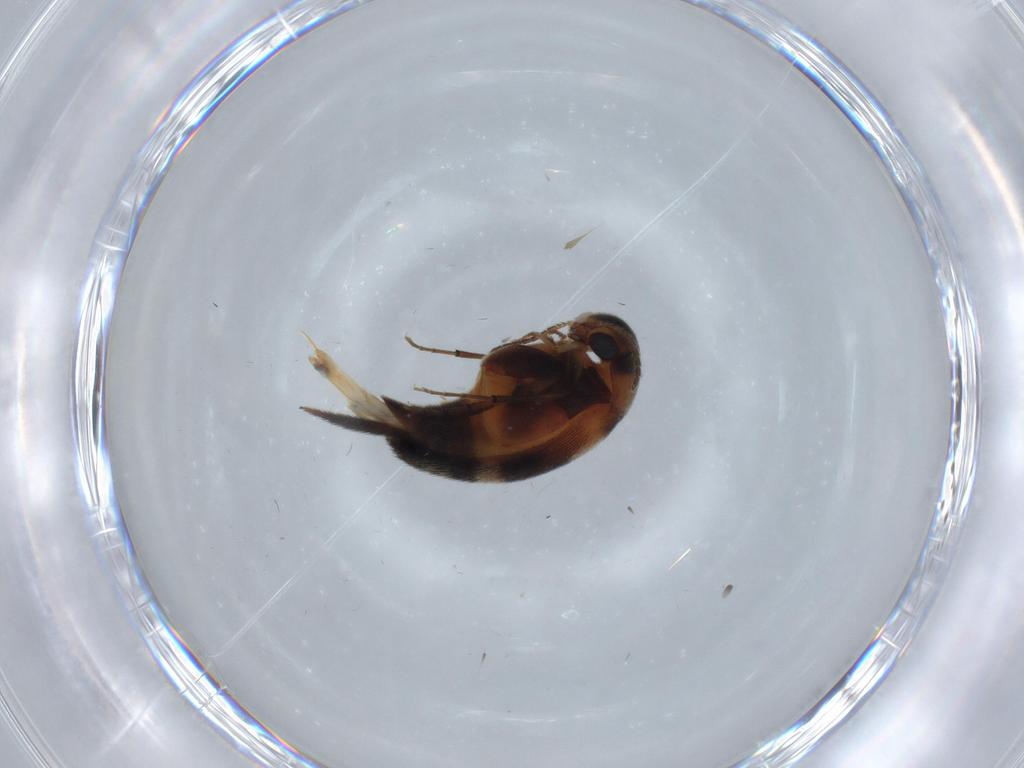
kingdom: Animalia
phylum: Arthropoda
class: Insecta
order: Coleoptera
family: Mordellidae
